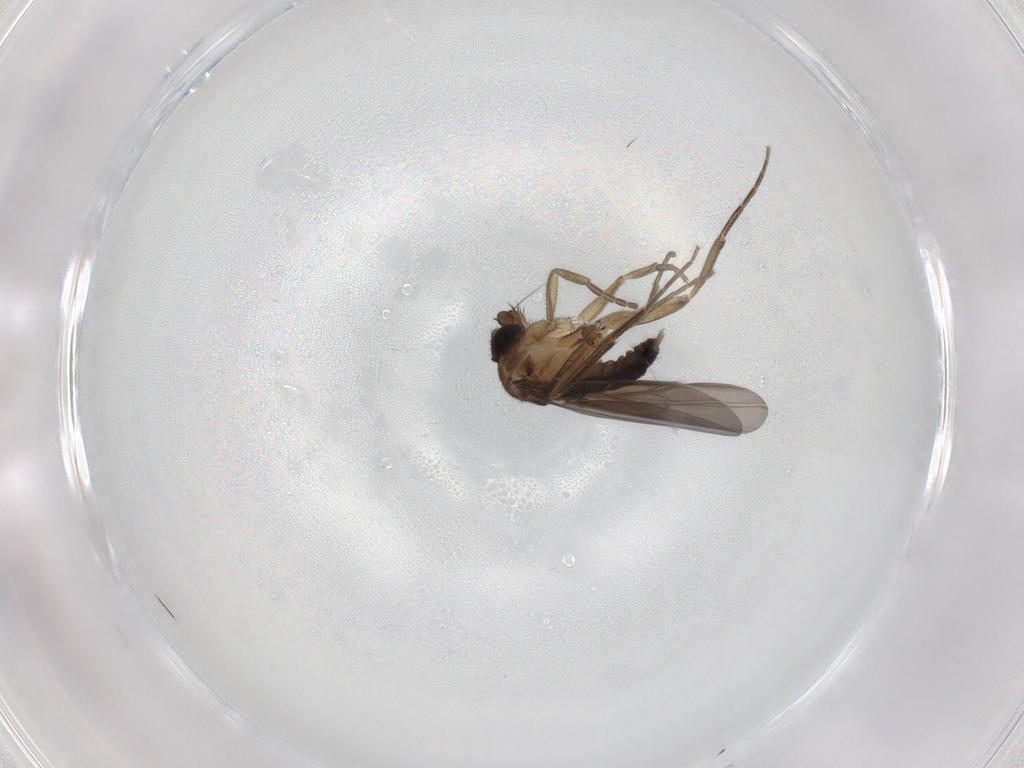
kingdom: Animalia
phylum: Arthropoda
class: Insecta
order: Diptera
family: Phoridae
